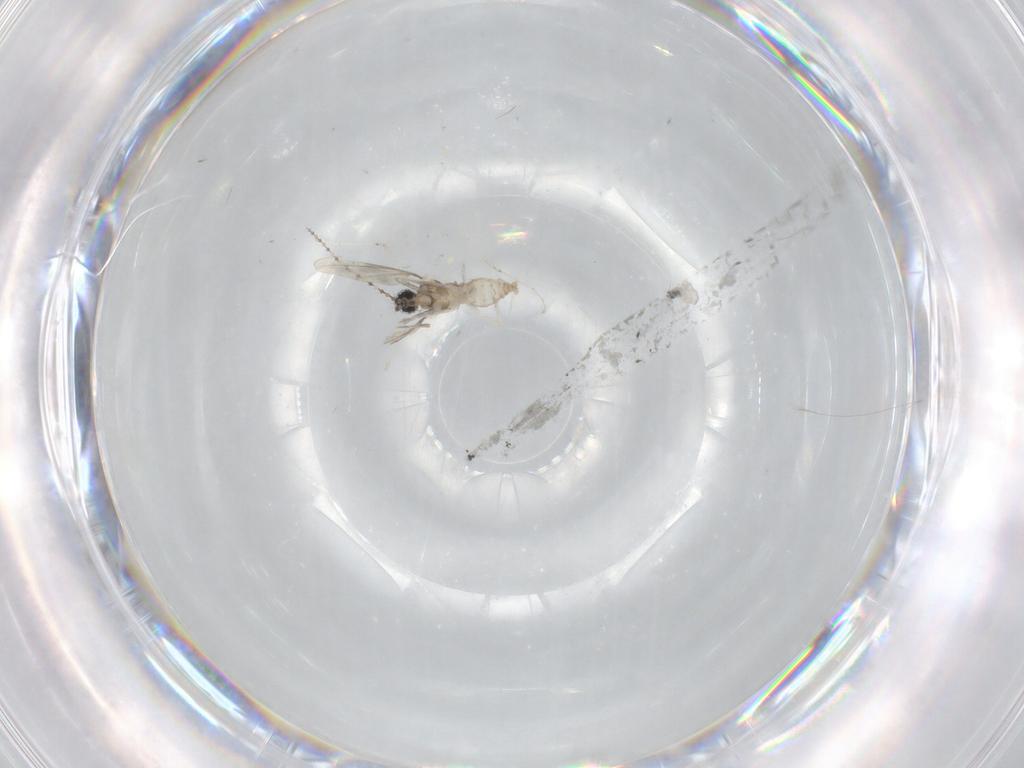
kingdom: Animalia
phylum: Arthropoda
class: Insecta
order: Diptera
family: Cecidomyiidae
